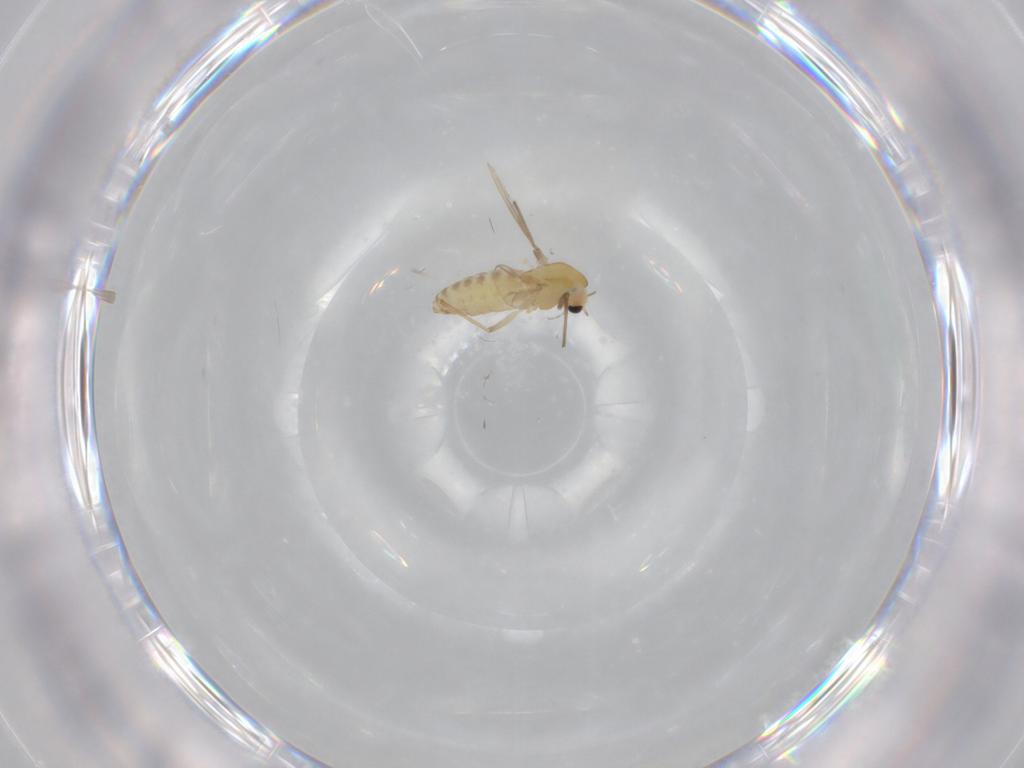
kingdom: Animalia
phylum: Arthropoda
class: Insecta
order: Diptera
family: Chironomidae
